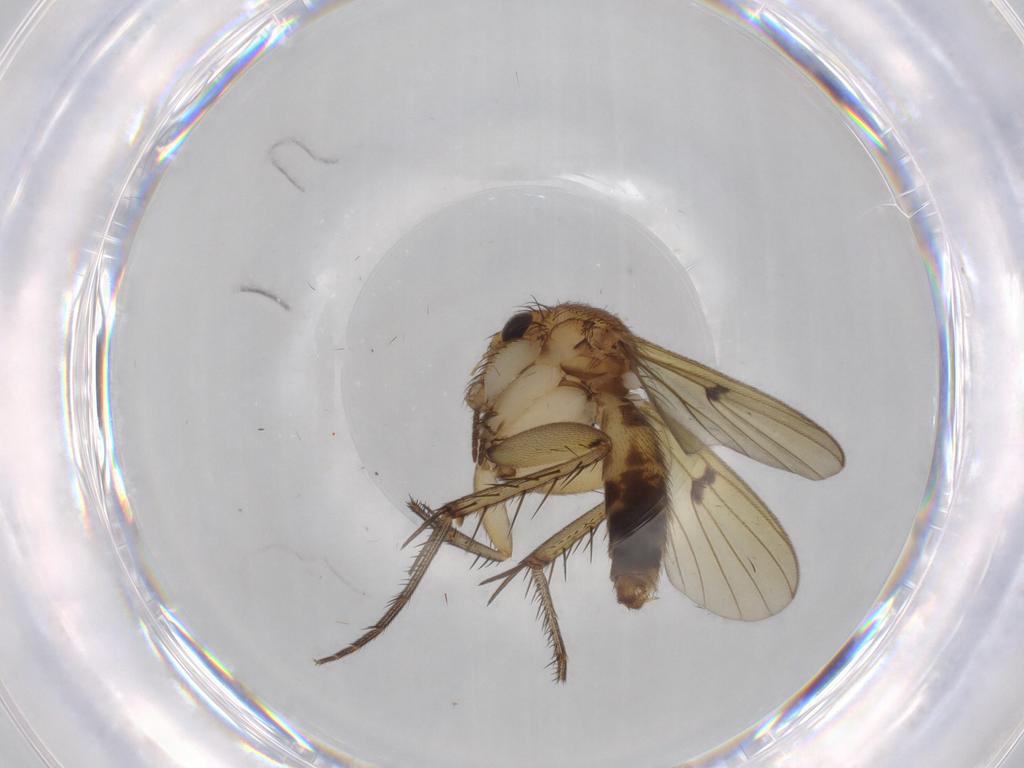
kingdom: Animalia
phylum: Arthropoda
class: Insecta
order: Diptera
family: Mycetophilidae
